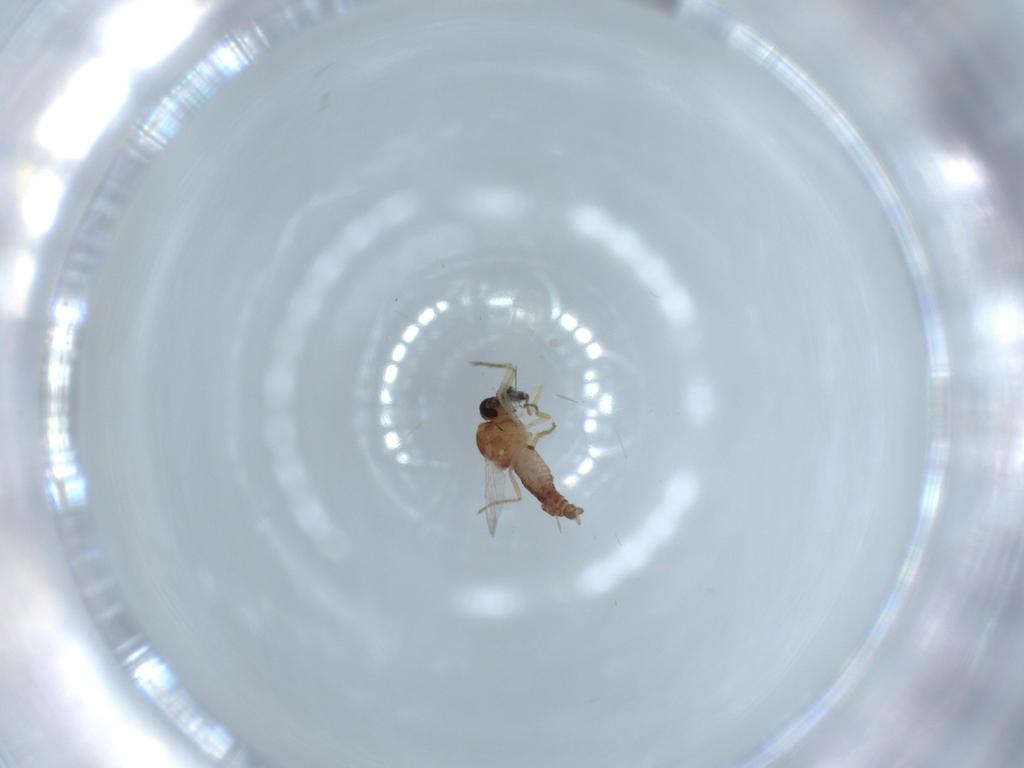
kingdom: Animalia
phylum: Arthropoda
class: Insecta
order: Diptera
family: Ceratopogonidae
